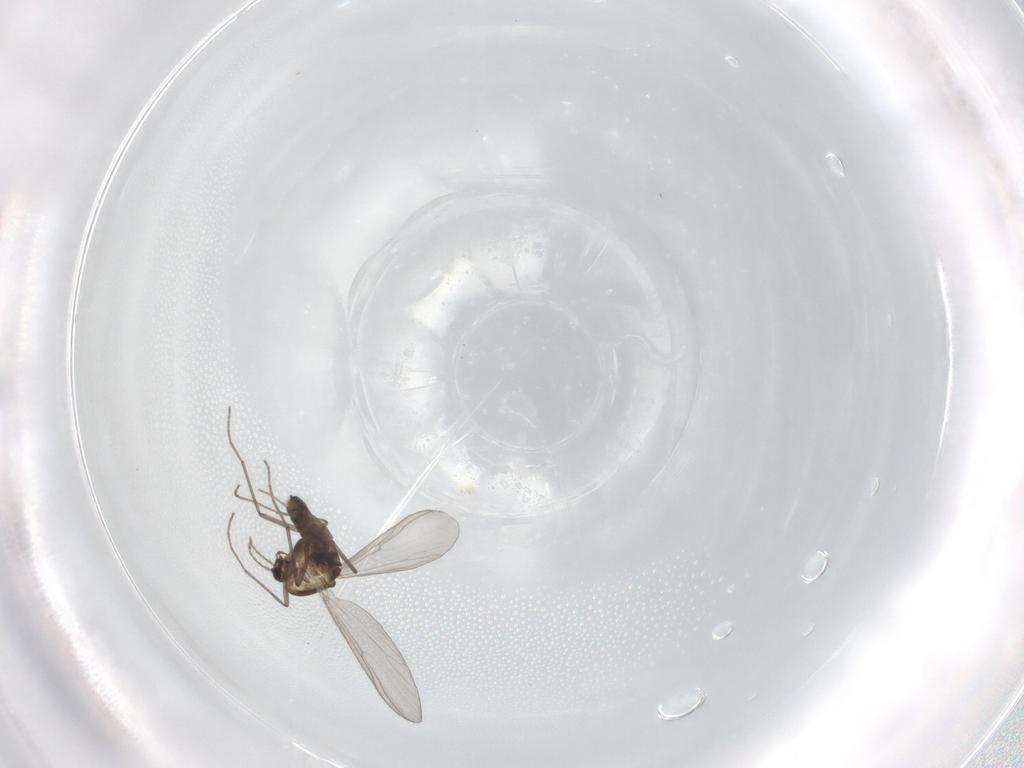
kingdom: Animalia
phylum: Arthropoda
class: Insecta
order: Diptera
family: Chironomidae
